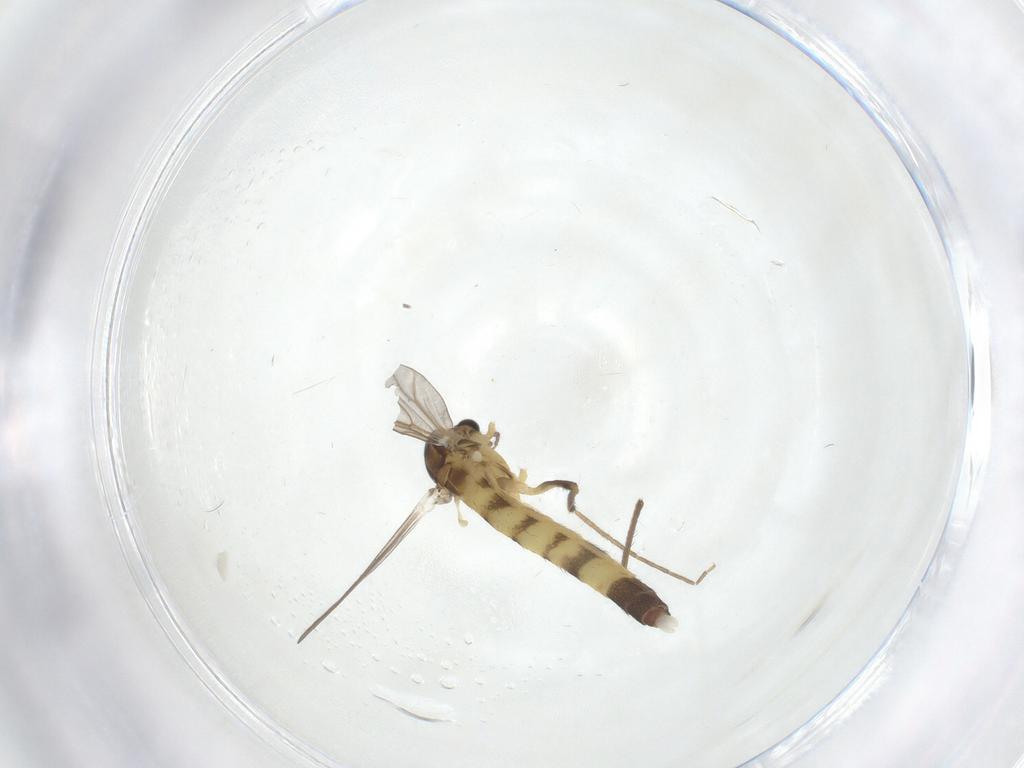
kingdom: Animalia
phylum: Arthropoda
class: Insecta
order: Diptera
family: Chironomidae
